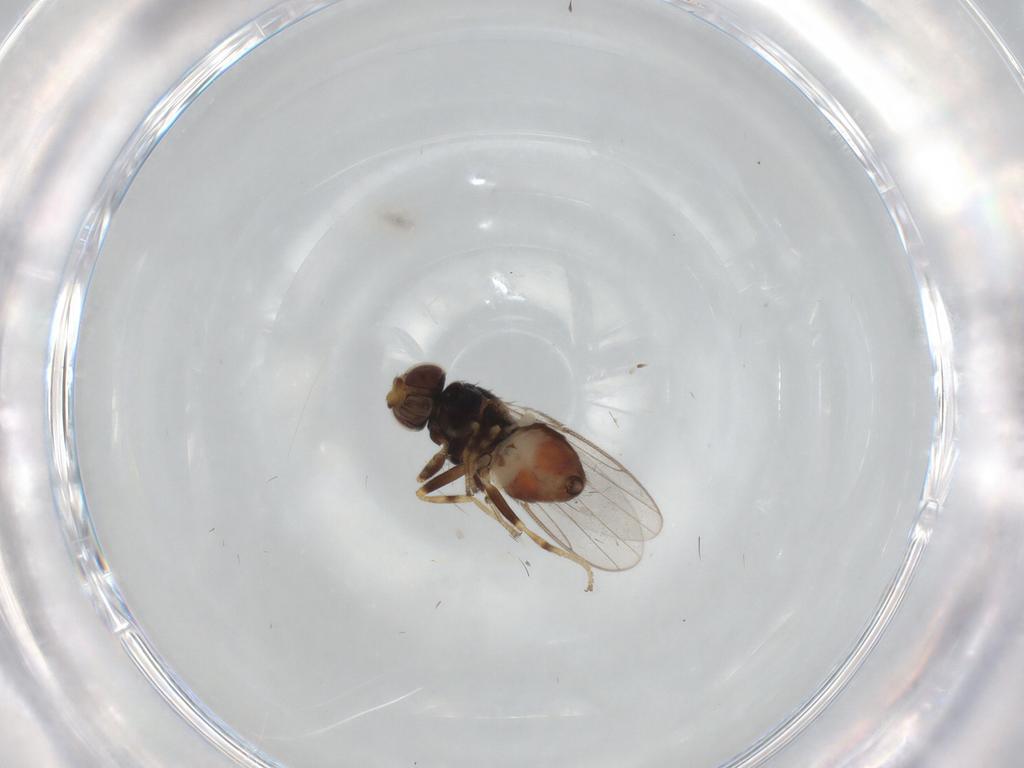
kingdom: Animalia
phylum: Arthropoda
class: Insecta
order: Diptera
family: Chloropidae
